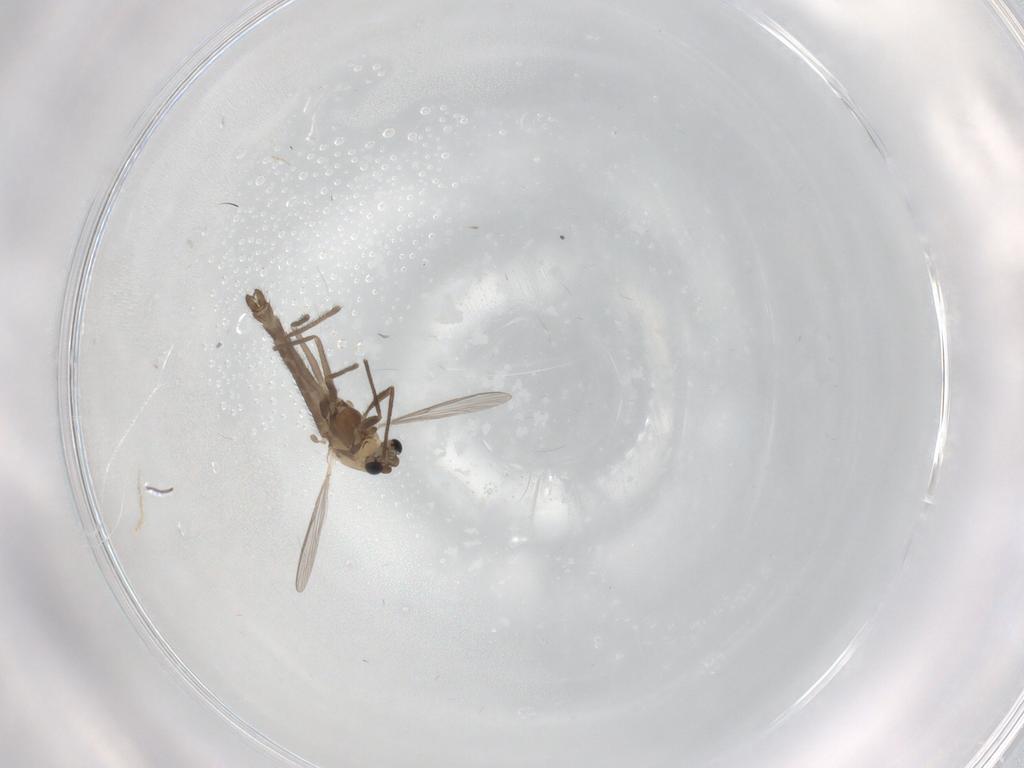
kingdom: Animalia
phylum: Arthropoda
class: Insecta
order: Diptera
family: Chironomidae
